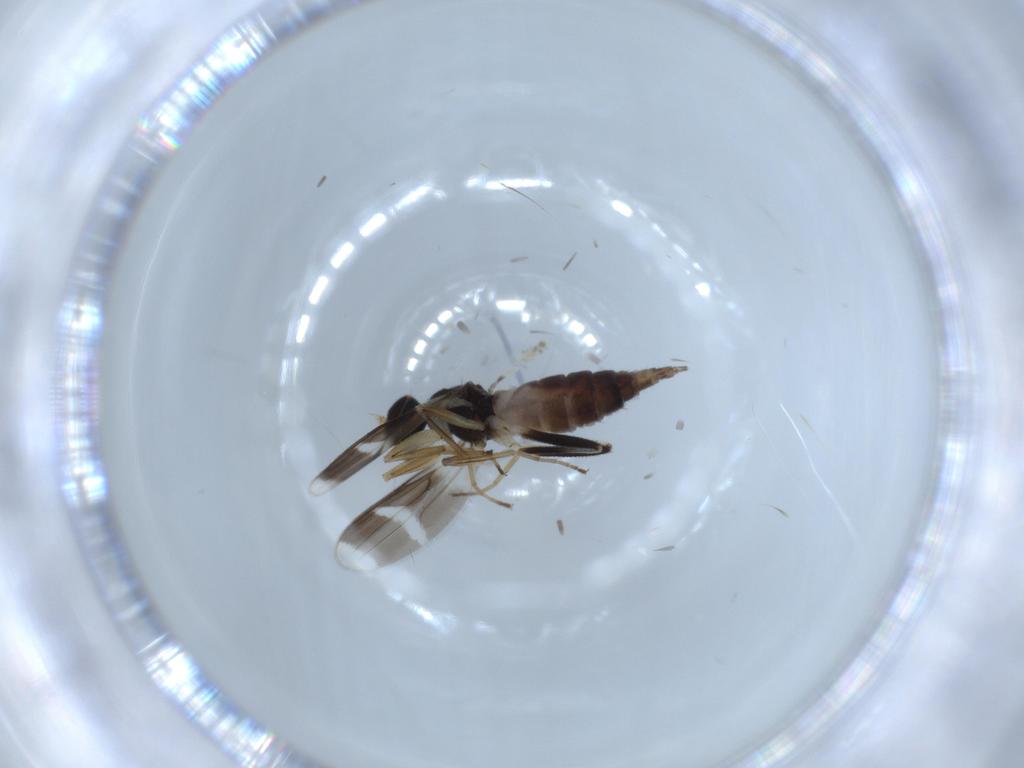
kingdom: Animalia
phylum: Arthropoda
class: Insecta
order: Diptera
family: Hybotidae
